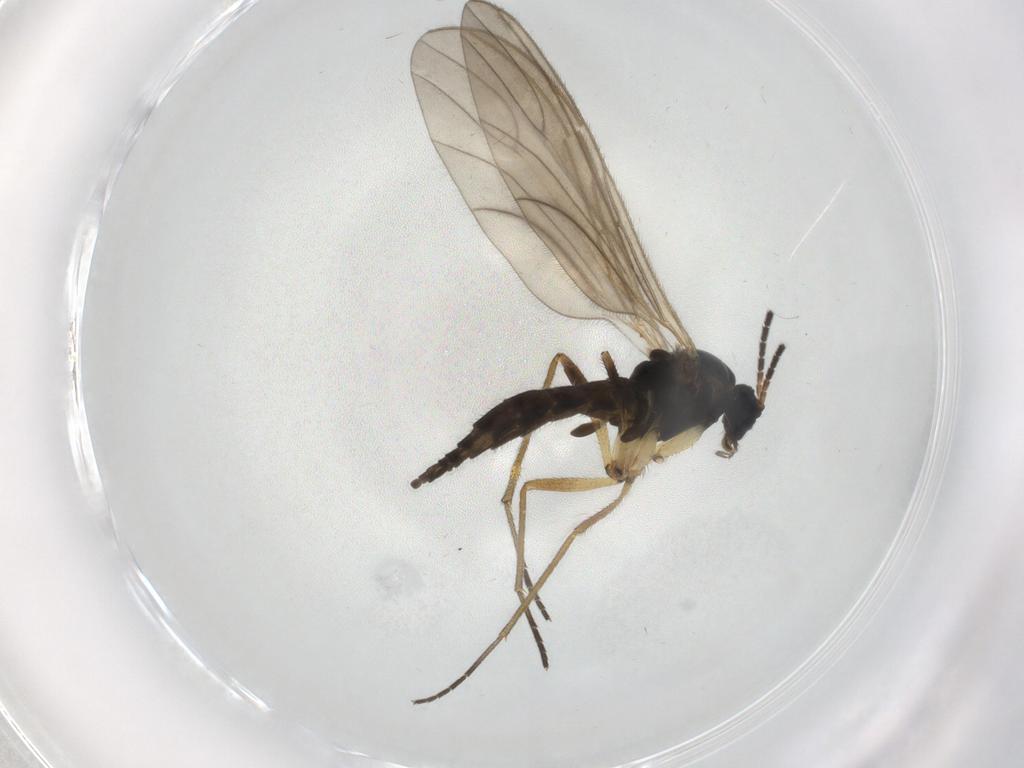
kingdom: Animalia
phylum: Arthropoda
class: Insecta
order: Diptera
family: Sciaridae
